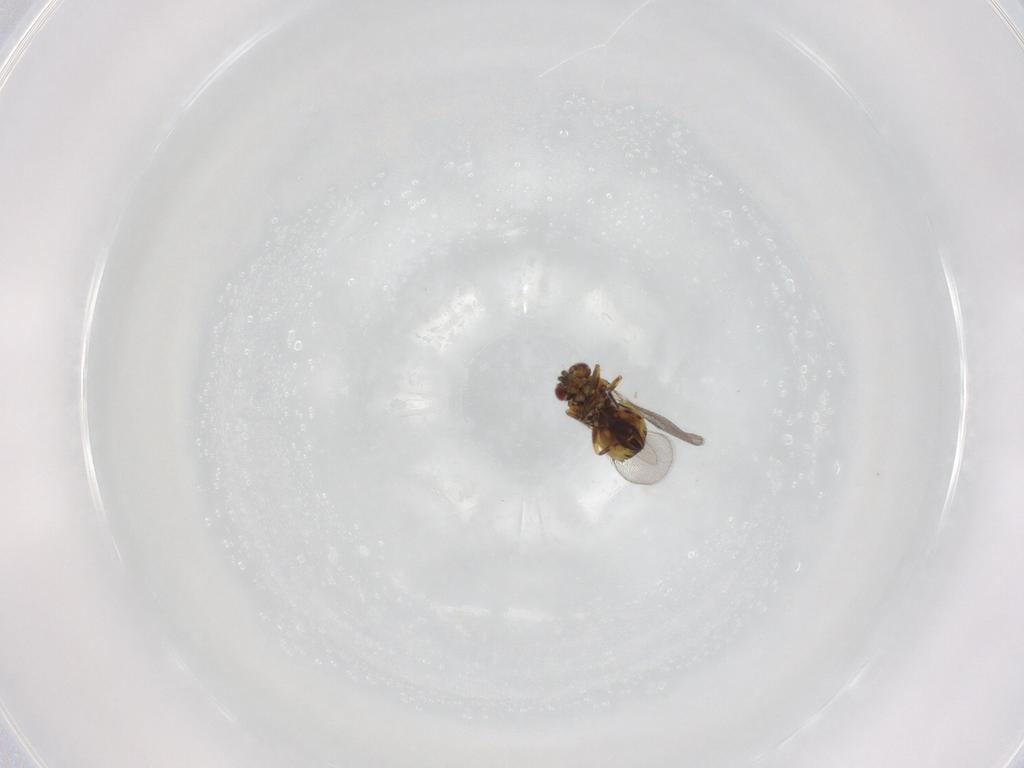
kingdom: Animalia
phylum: Arthropoda
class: Insecta
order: Hymenoptera
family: Eulophidae
